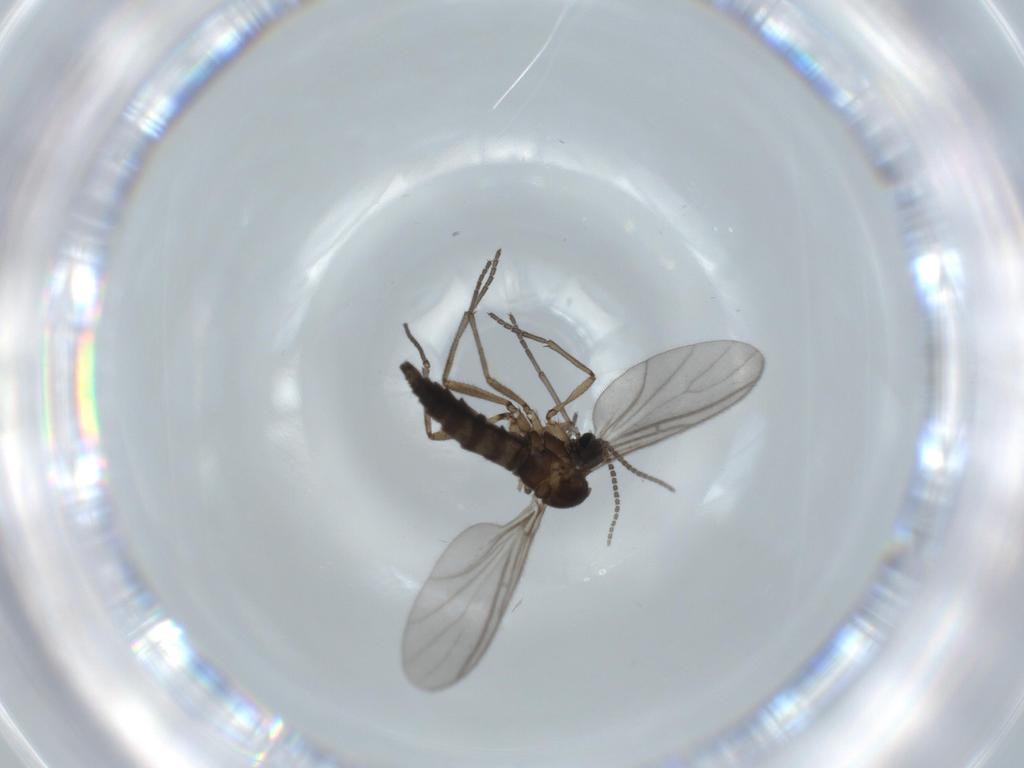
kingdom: Animalia
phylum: Arthropoda
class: Insecta
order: Diptera
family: Sciaridae
